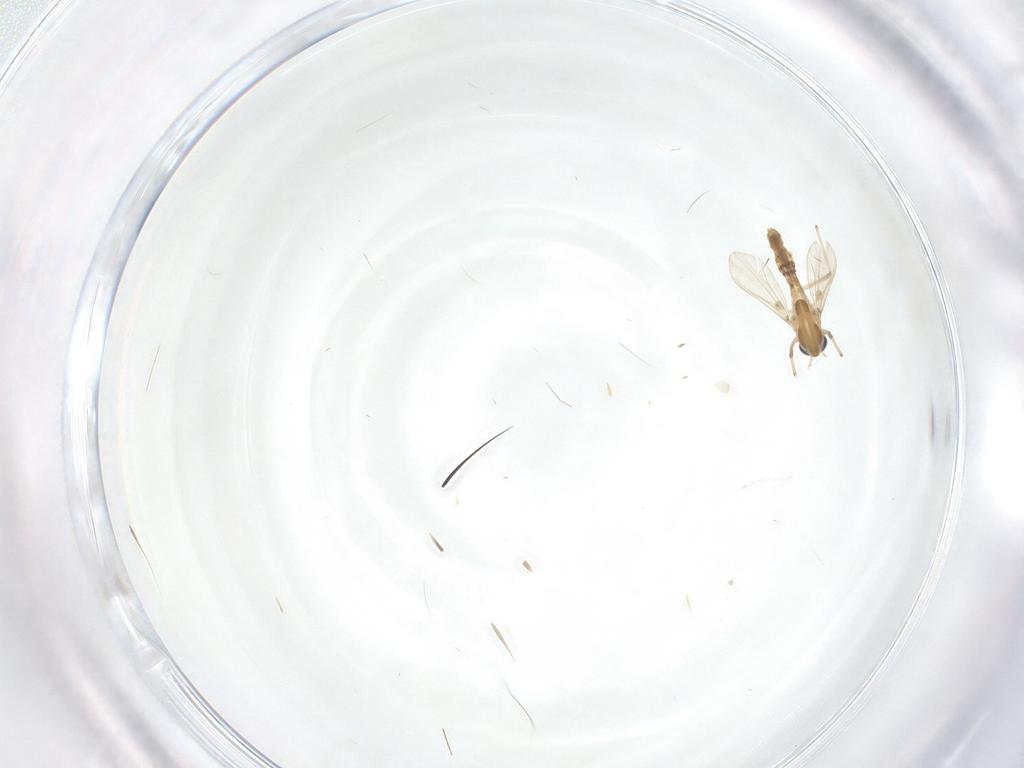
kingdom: Animalia
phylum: Arthropoda
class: Insecta
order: Diptera
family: Chironomidae
